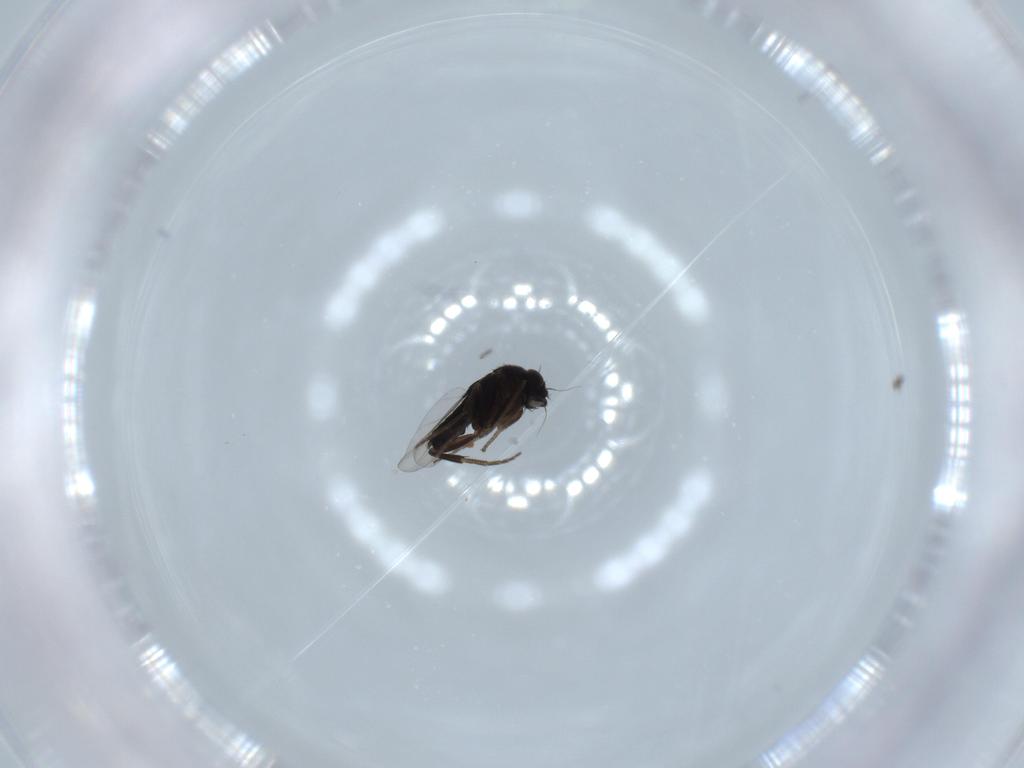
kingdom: Animalia
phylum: Arthropoda
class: Insecta
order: Diptera
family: Phoridae
